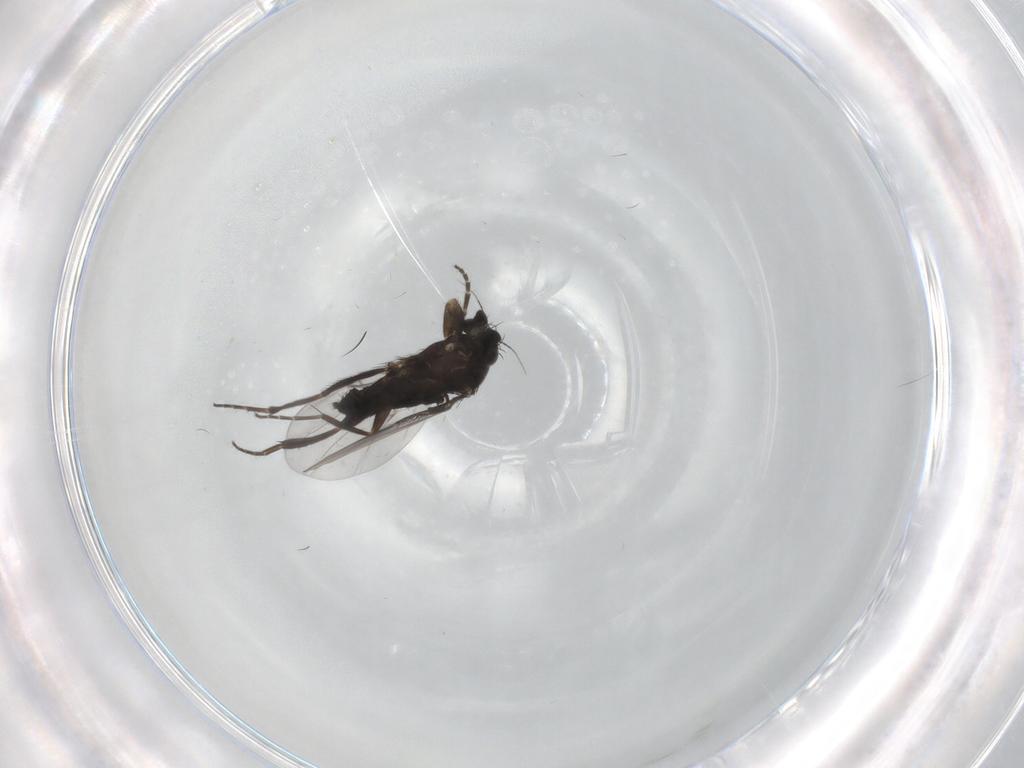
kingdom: Animalia
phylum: Arthropoda
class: Insecta
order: Diptera
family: Phoridae
